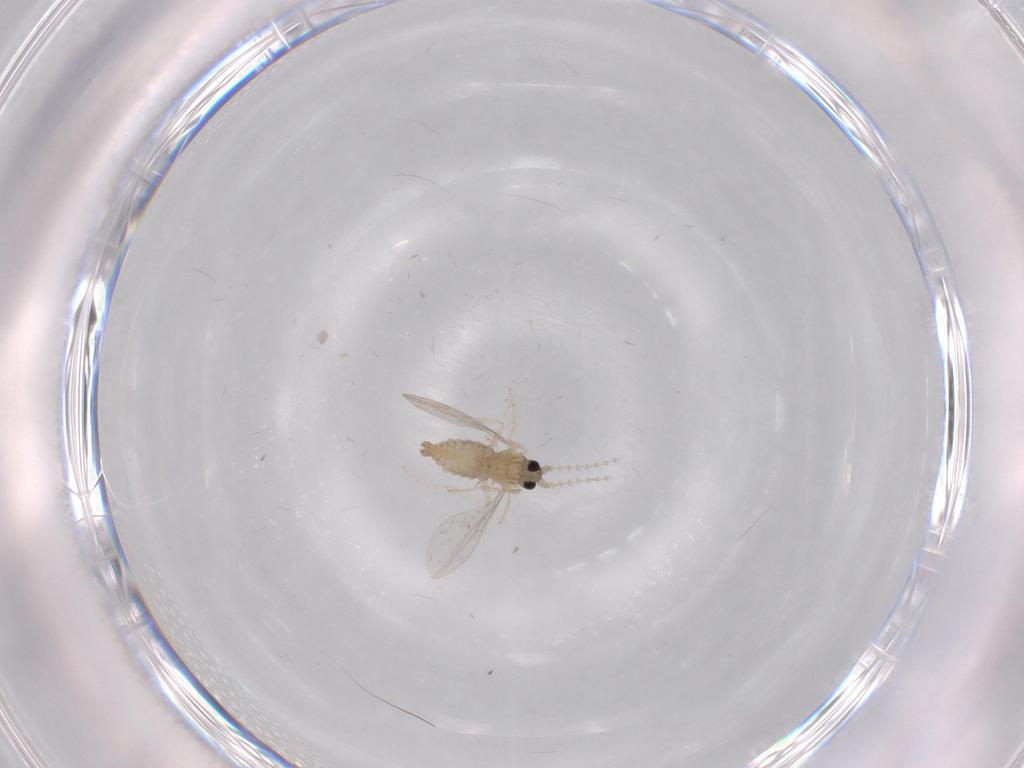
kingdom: Animalia
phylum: Arthropoda
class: Insecta
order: Diptera
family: Cecidomyiidae
